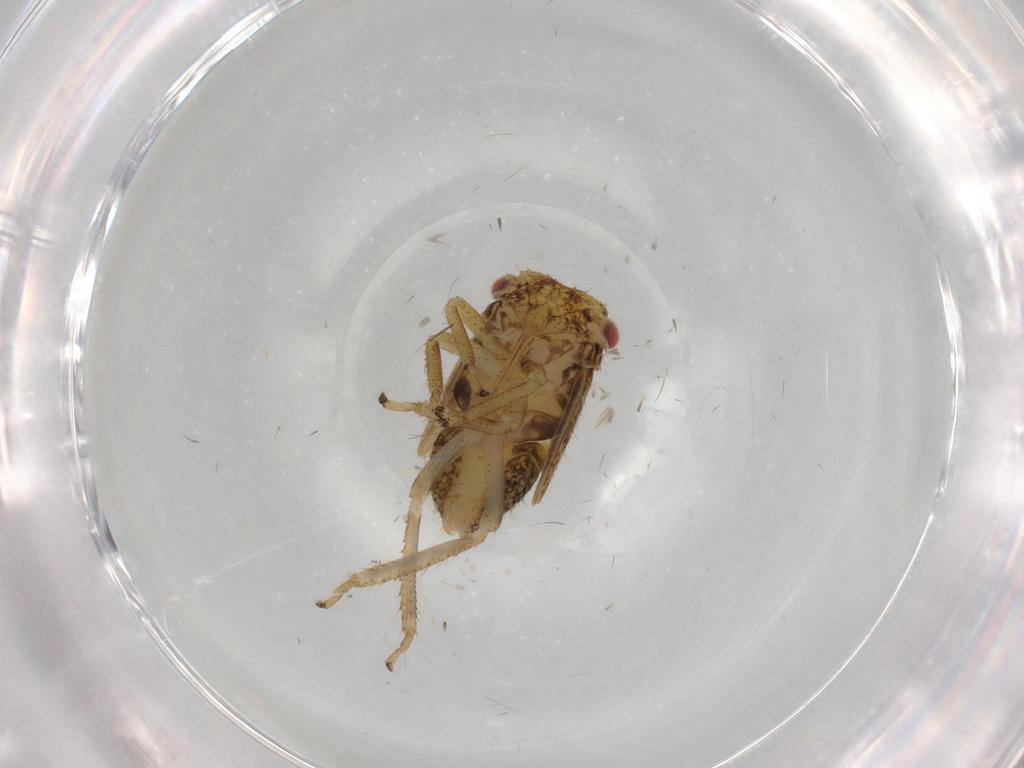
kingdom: Animalia
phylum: Arthropoda
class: Insecta
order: Hemiptera
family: Cicadellidae
